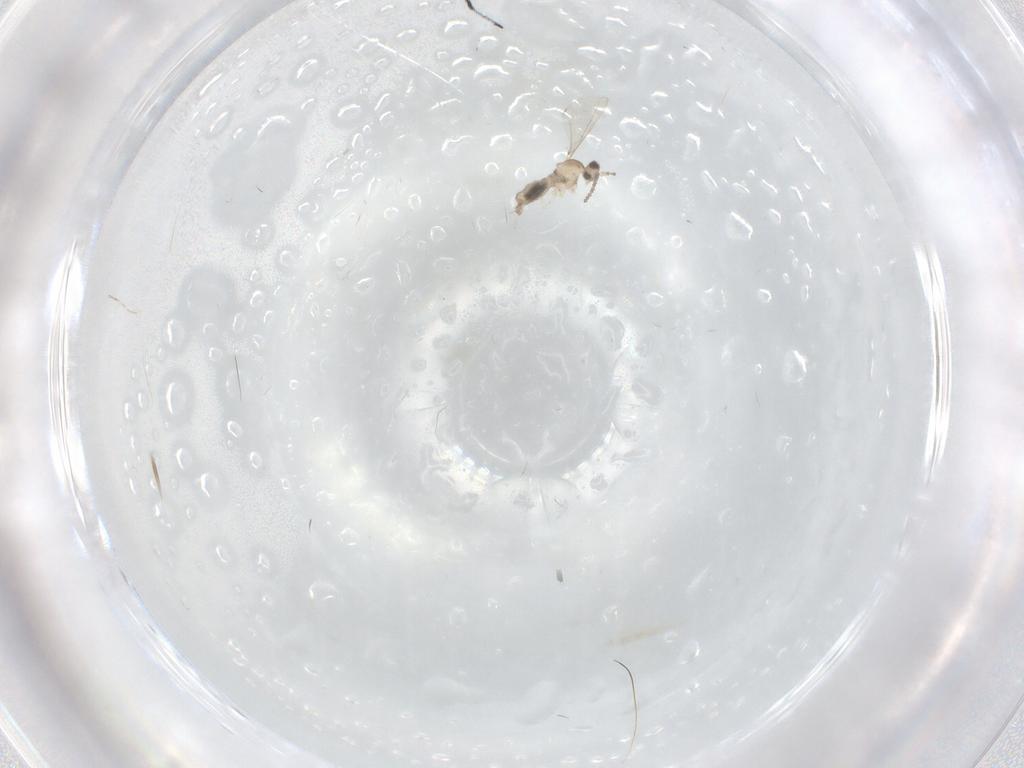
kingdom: Animalia
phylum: Arthropoda
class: Insecta
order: Diptera
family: Cecidomyiidae
